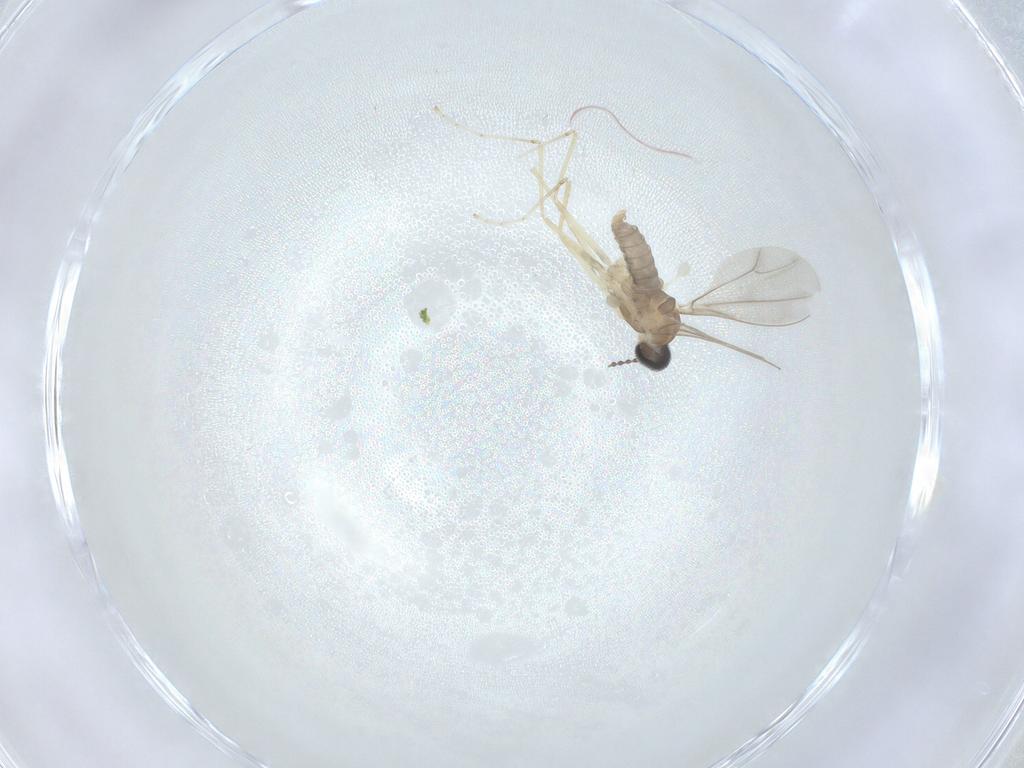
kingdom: Animalia
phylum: Arthropoda
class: Insecta
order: Diptera
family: Cecidomyiidae
